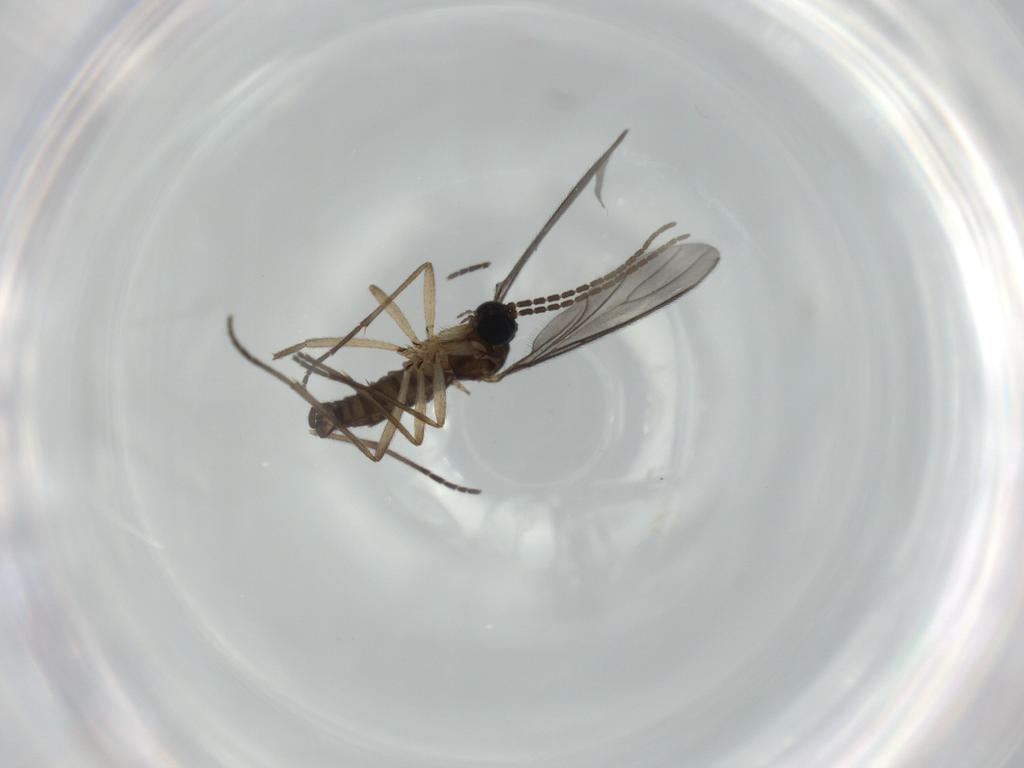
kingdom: Animalia
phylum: Arthropoda
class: Insecta
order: Diptera
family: Sciaridae
